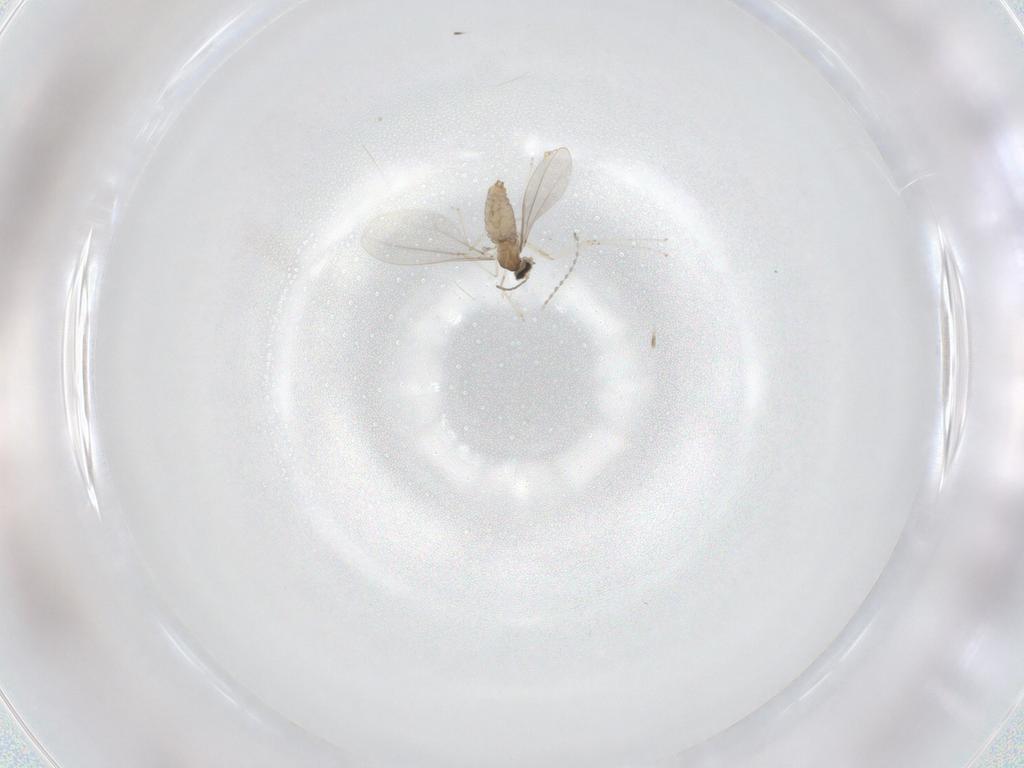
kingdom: Animalia
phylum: Arthropoda
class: Insecta
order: Diptera
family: Cecidomyiidae
